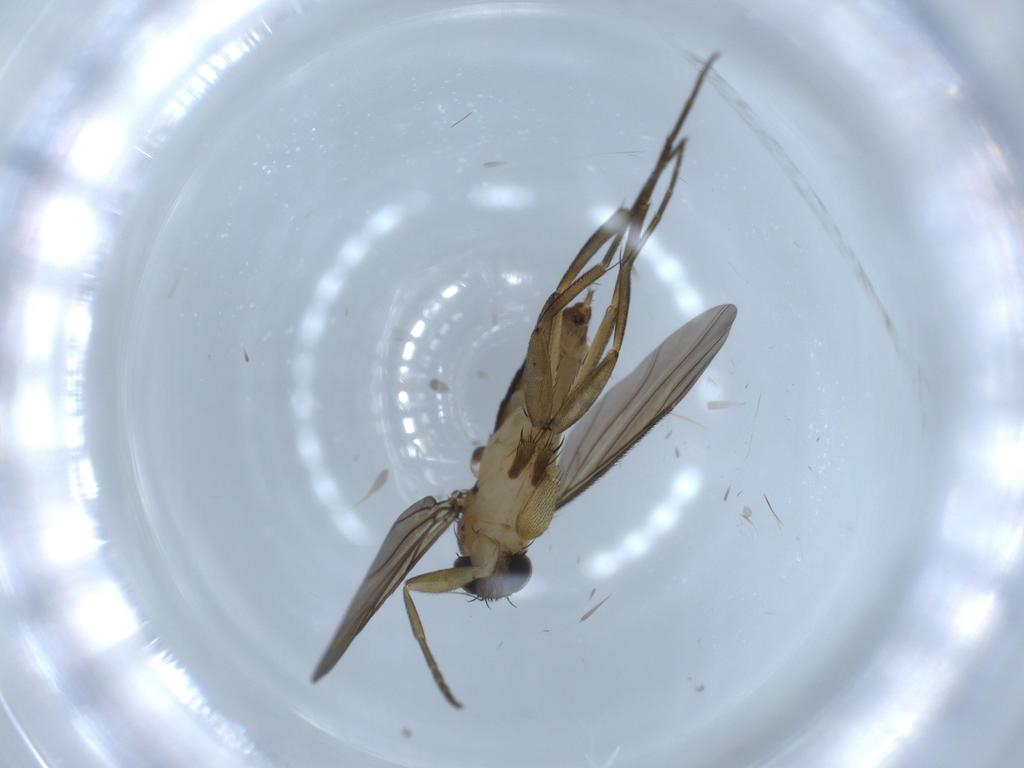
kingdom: Animalia
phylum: Arthropoda
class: Insecta
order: Diptera
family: Phoridae
